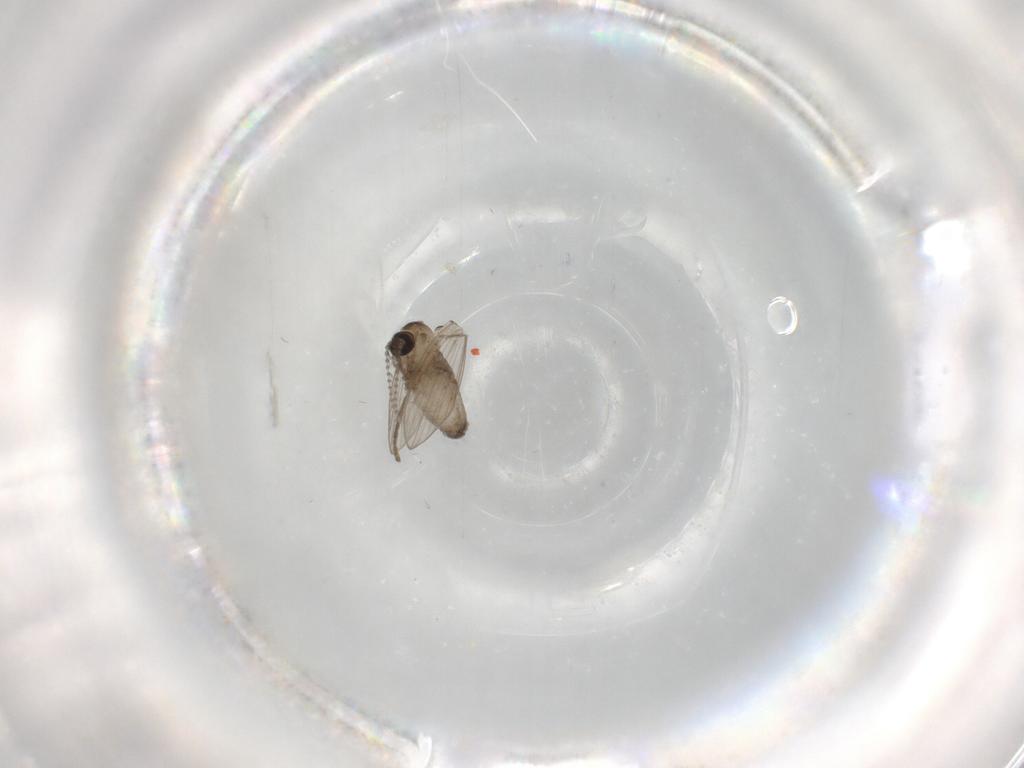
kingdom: Animalia
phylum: Arthropoda
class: Insecta
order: Diptera
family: Psychodidae
